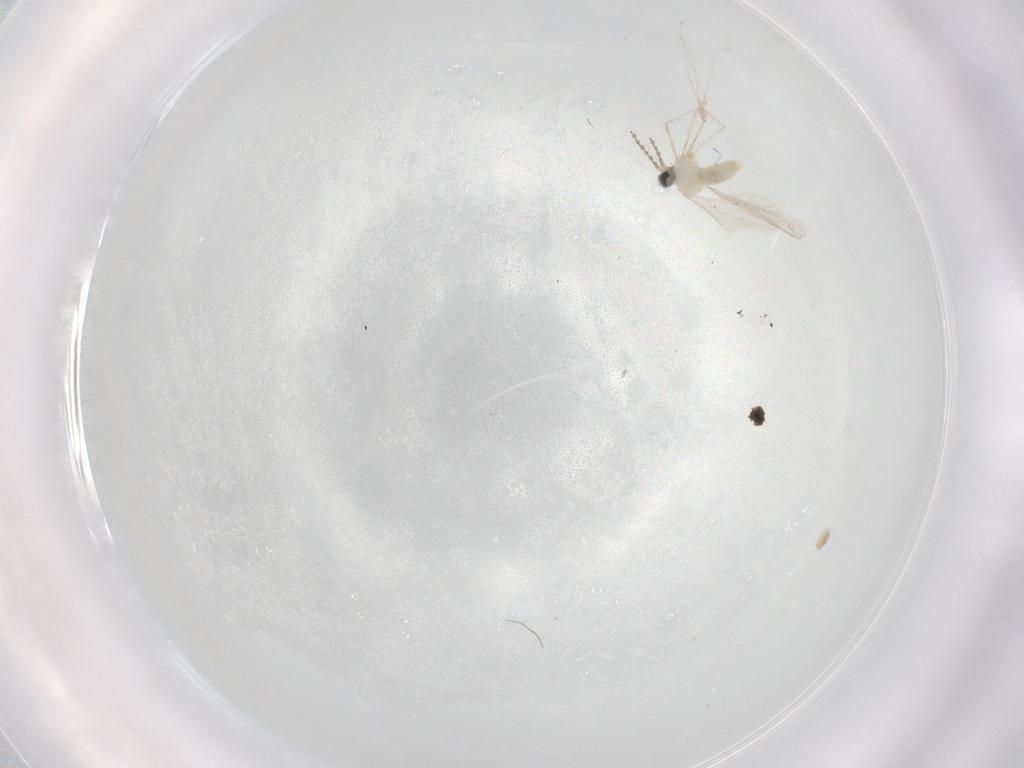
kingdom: Animalia
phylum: Arthropoda
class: Insecta
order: Diptera
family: Cecidomyiidae
